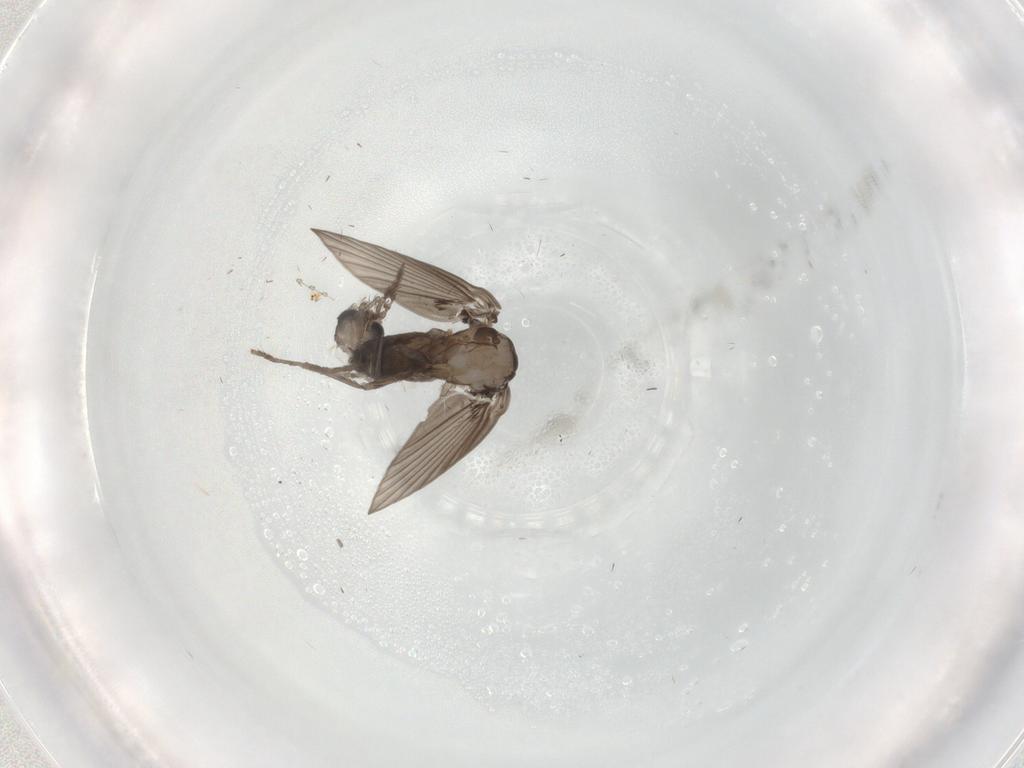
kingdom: Animalia
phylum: Arthropoda
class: Insecta
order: Diptera
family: Psychodidae
